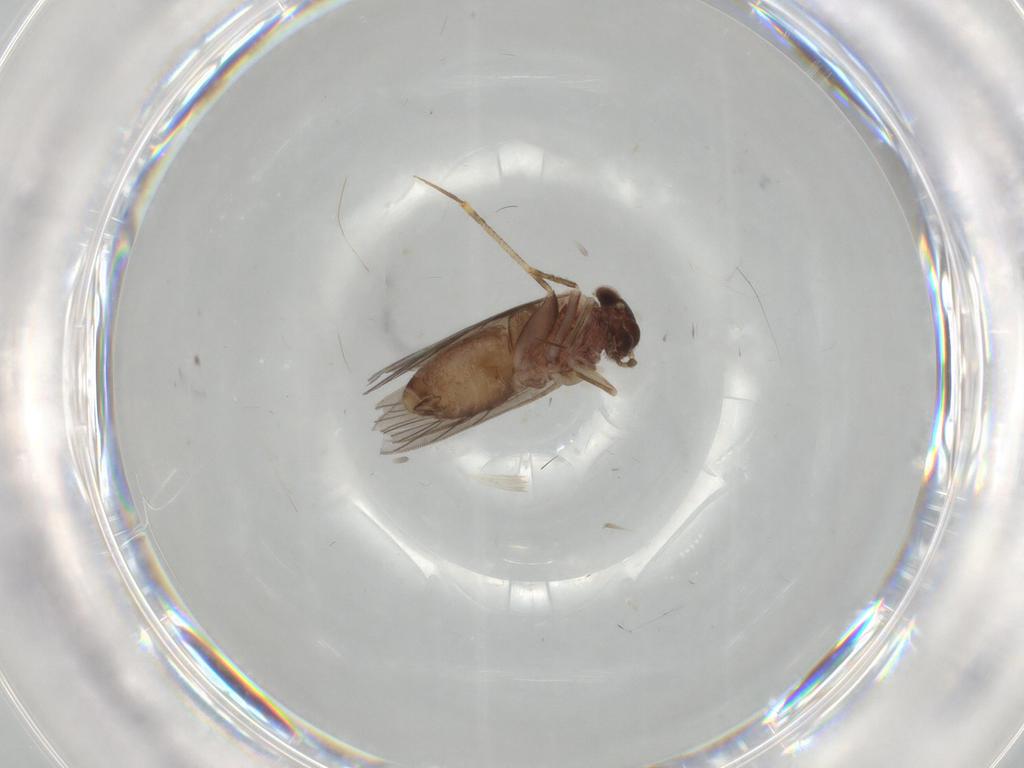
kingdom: Animalia
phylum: Arthropoda
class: Insecta
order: Psocodea
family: Lepidopsocidae
